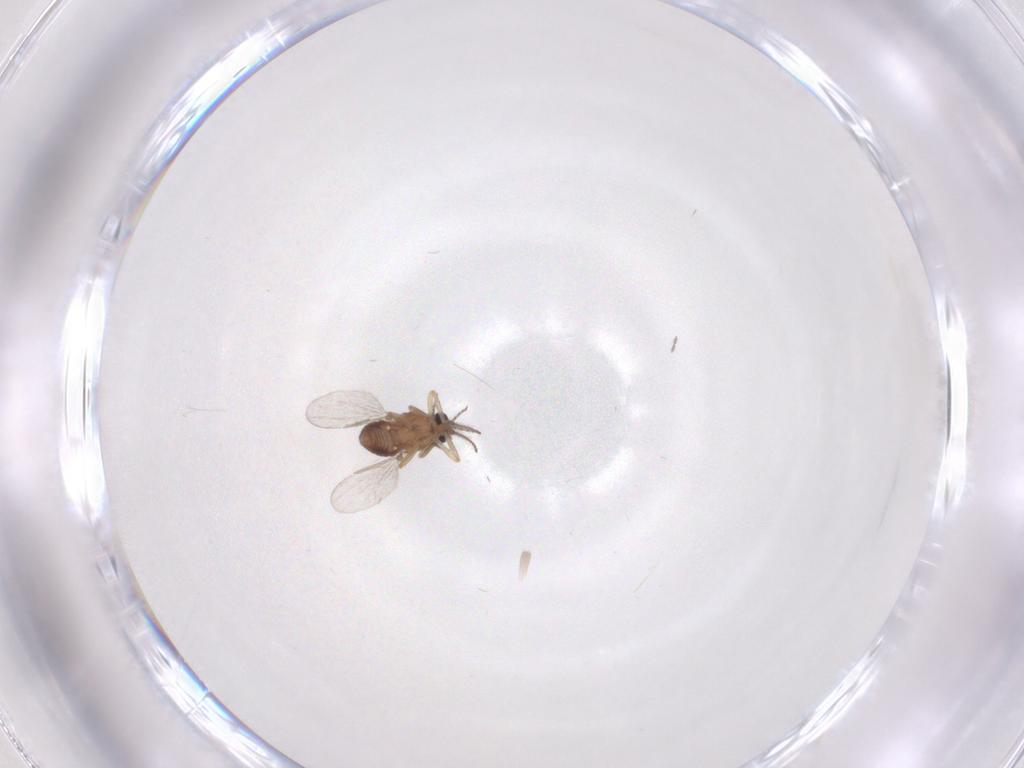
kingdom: Animalia
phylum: Arthropoda
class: Insecta
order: Diptera
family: Ceratopogonidae
